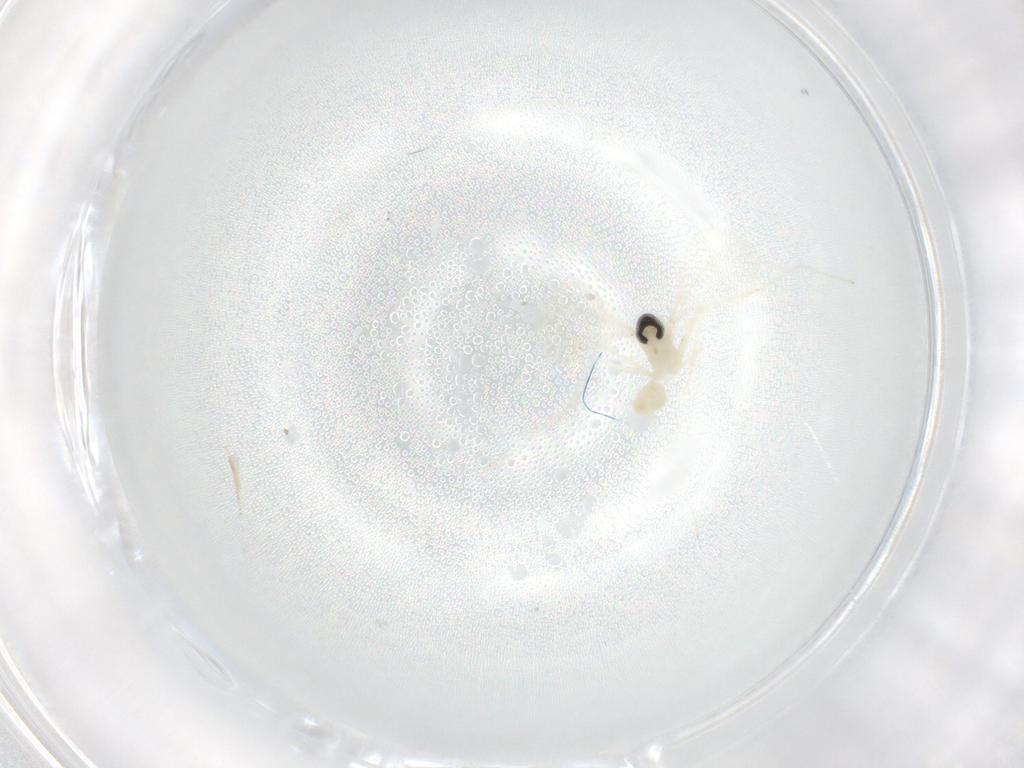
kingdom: Animalia
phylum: Arthropoda
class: Insecta
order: Diptera
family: Cecidomyiidae
